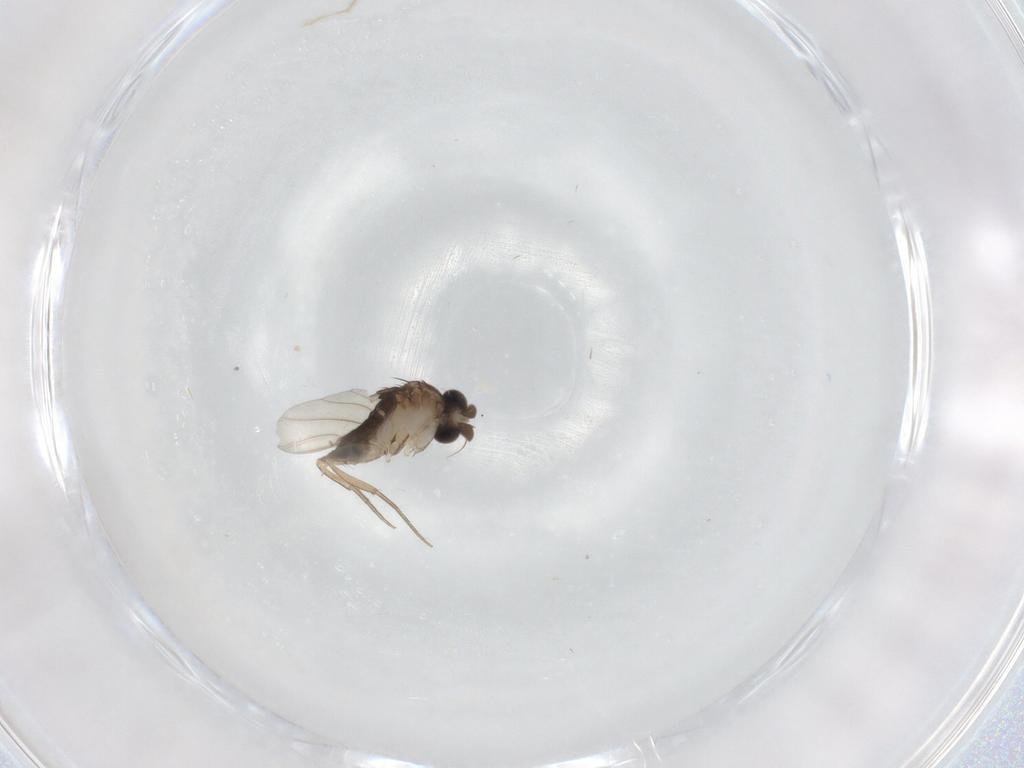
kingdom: Animalia
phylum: Arthropoda
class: Insecta
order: Diptera
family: Phoridae
